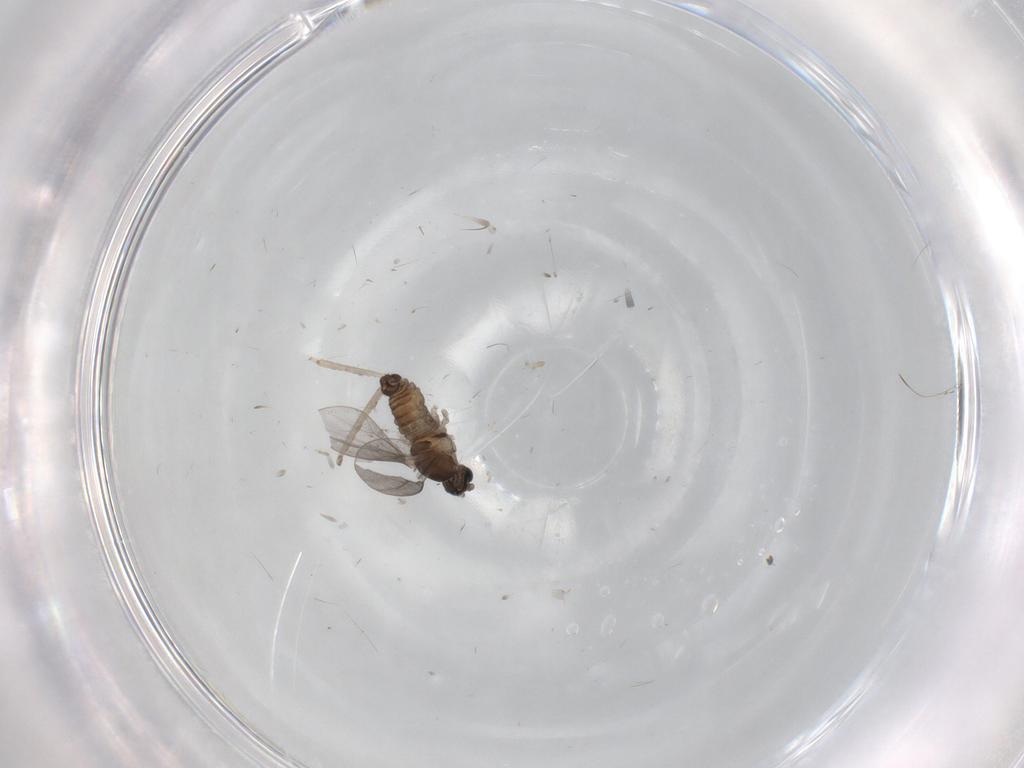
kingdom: Animalia
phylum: Arthropoda
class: Insecta
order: Diptera
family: Cecidomyiidae
